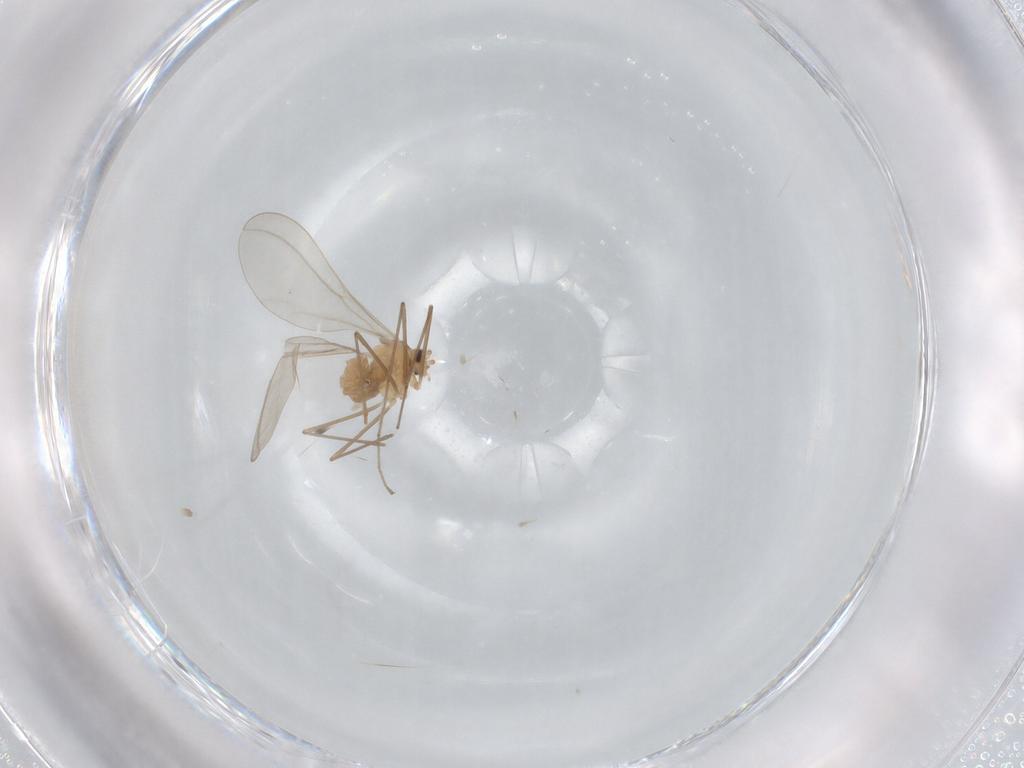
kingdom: Animalia
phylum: Arthropoda
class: Insecta
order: Diptera
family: Cecidomyiidae
